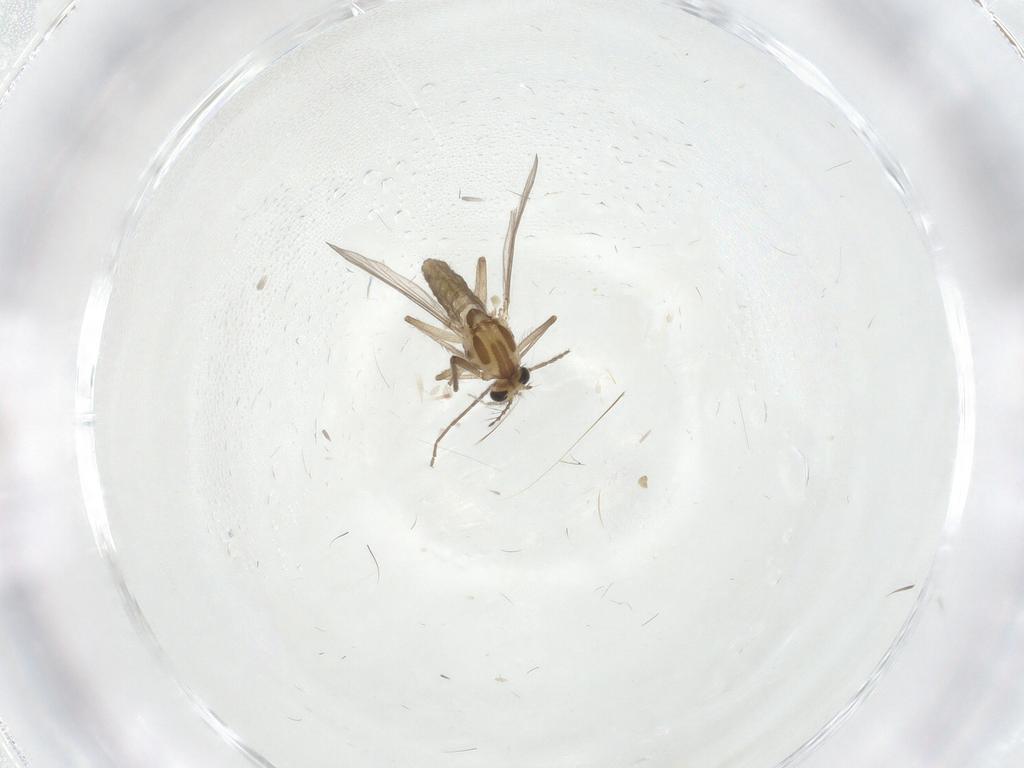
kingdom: Animalia
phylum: Arthropoda
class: Insecta
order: Diptera
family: Chironomidae
